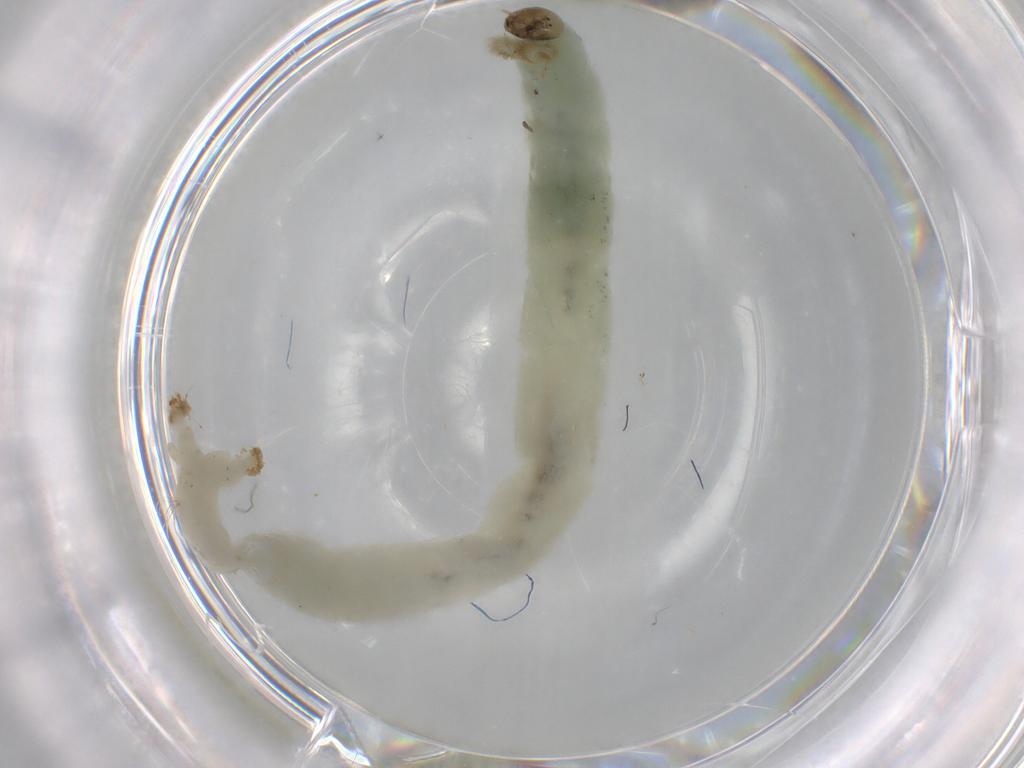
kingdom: Animalia
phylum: Arthropoda
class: Insecta
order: Diptera
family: Chironomidae
